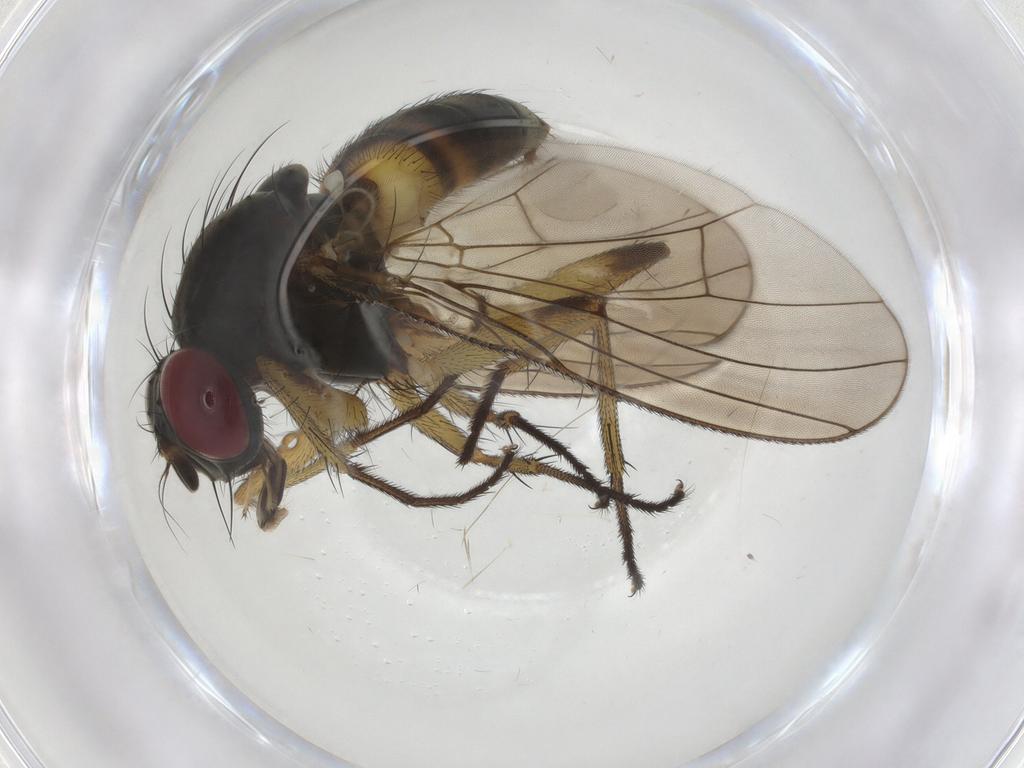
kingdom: Animalia
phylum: Arthropoda
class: Insecta
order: Diptera
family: Muscidae
